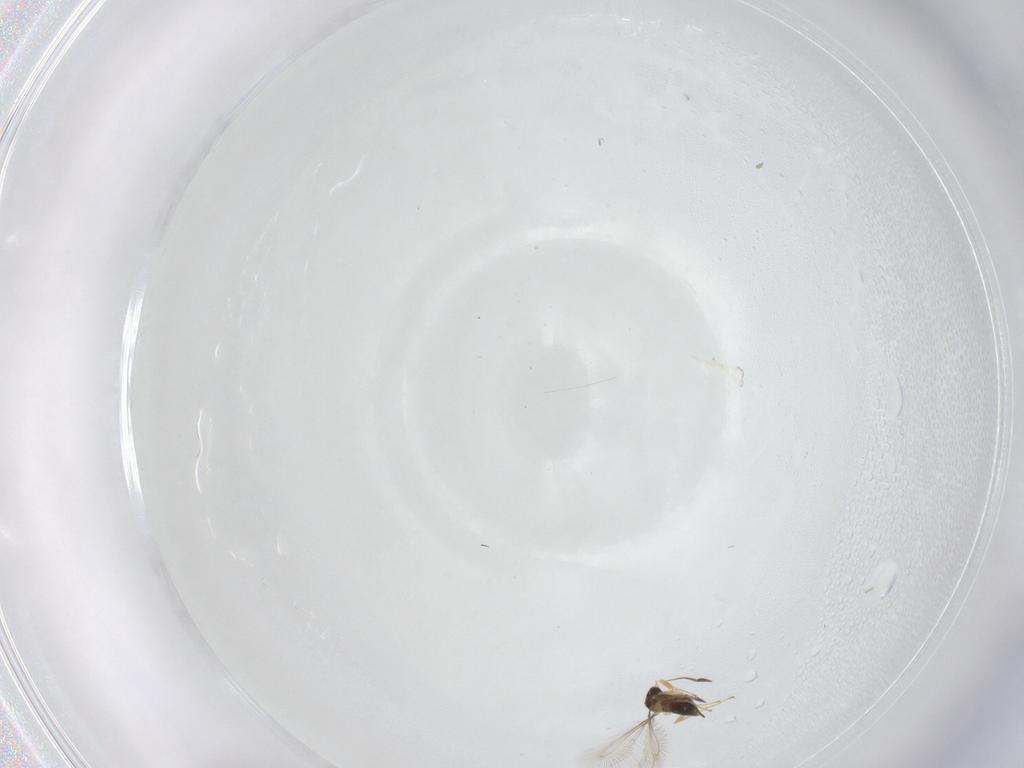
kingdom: Animalia
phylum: Arthropoda
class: Insecta
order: Hymenoptera
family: Mymaridae
